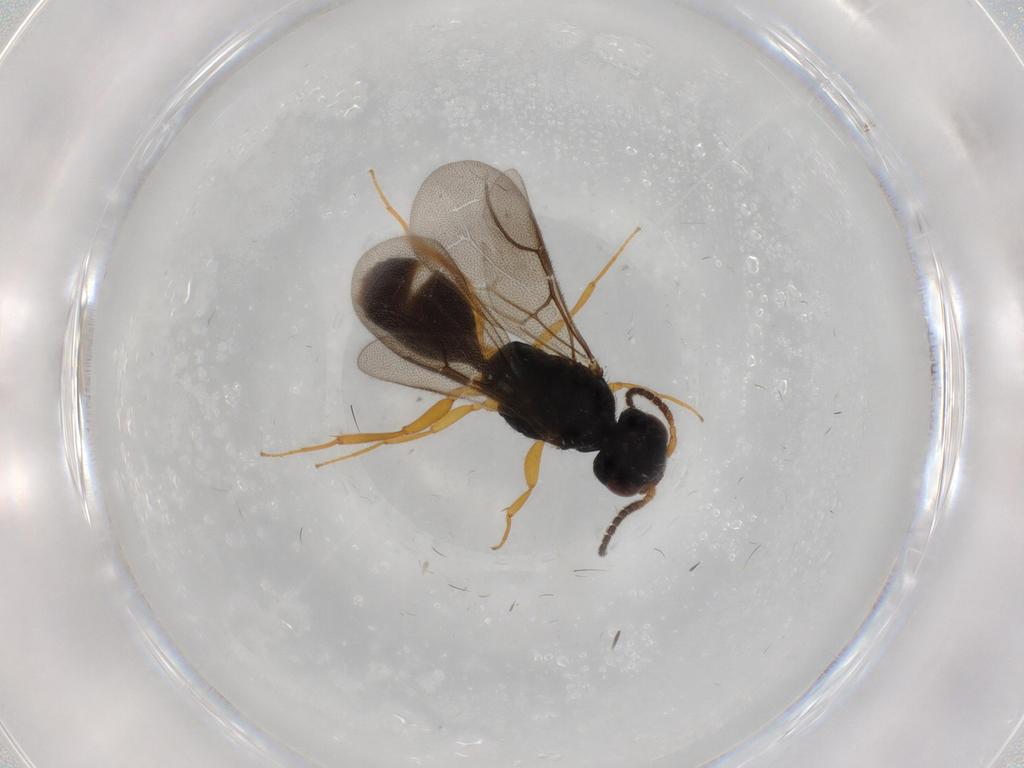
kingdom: Animalia
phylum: Arthropoda
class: Insecta
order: Hymenoptera
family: Bethylidae
